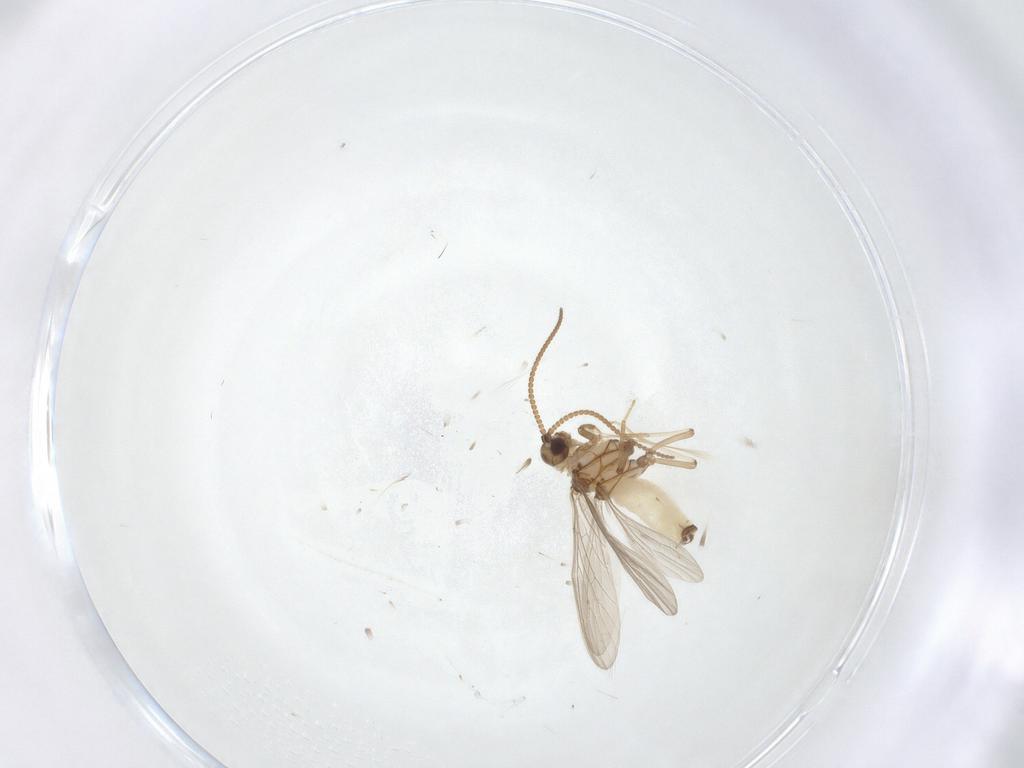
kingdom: Animalia
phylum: Arthropoda
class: Insecta
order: Neuroptera
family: Coniopterygidae
